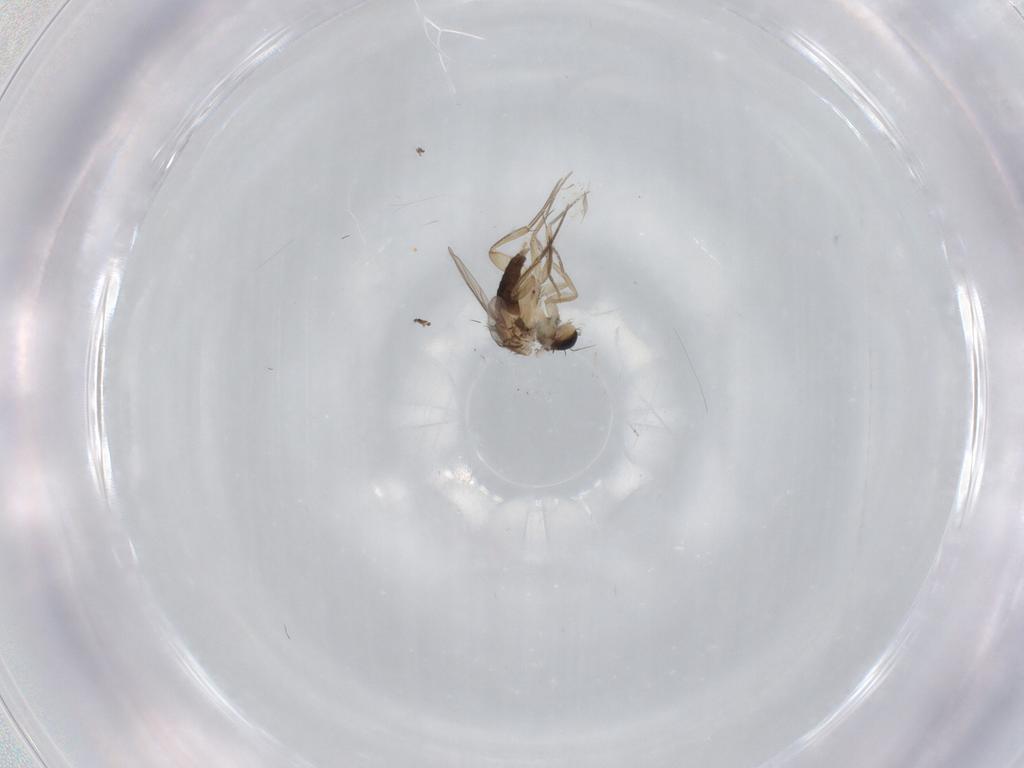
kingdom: Animalia
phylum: Arthropoda
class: Insecta
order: Diptera
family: Phoridae
